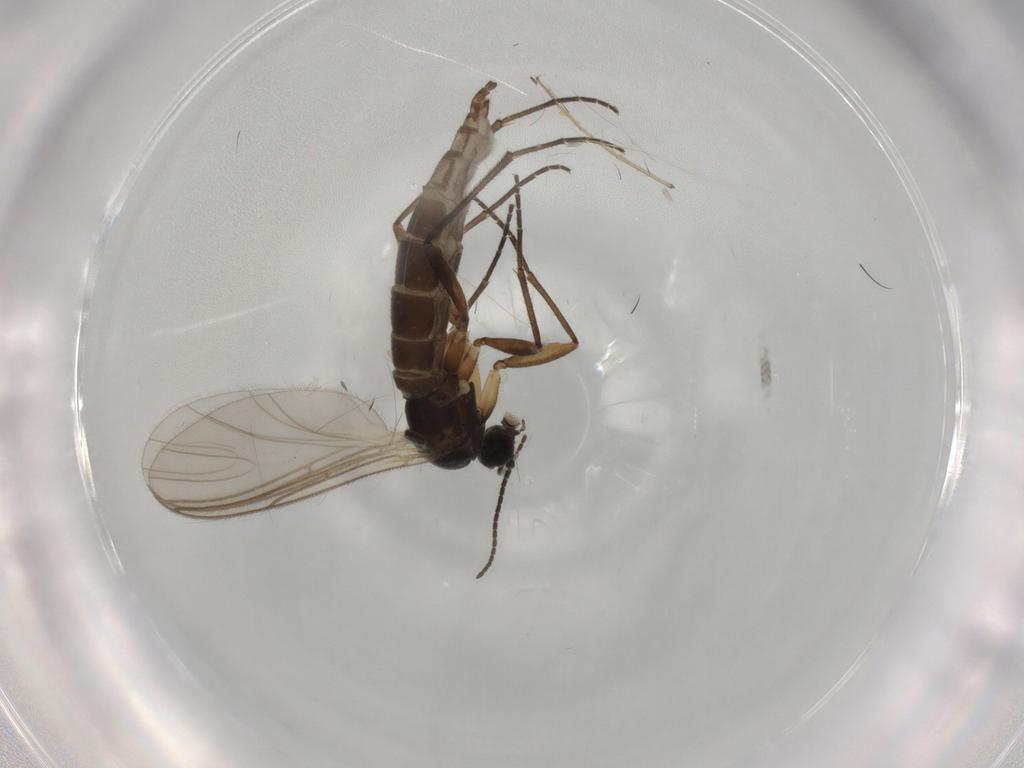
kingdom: Animalia
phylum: Arthropoda
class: Insecta
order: Diptera
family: Sciaridae
